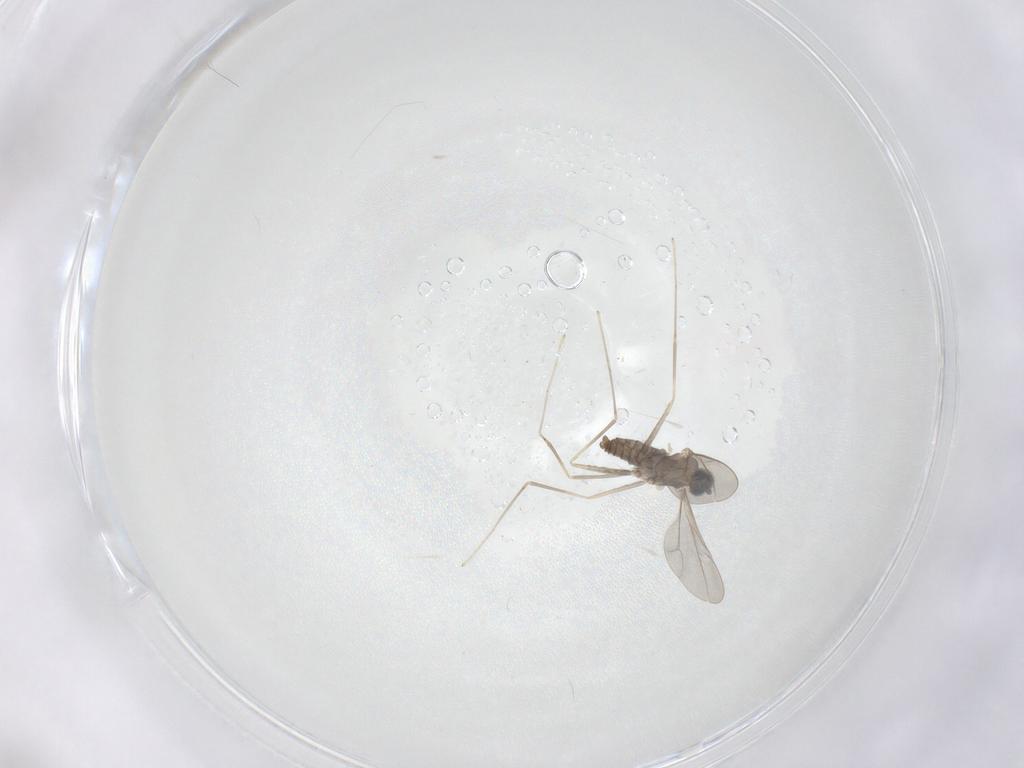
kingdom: Animalia
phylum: Arthropoda
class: Insecta
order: Diptera
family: Cecidomyiidae
